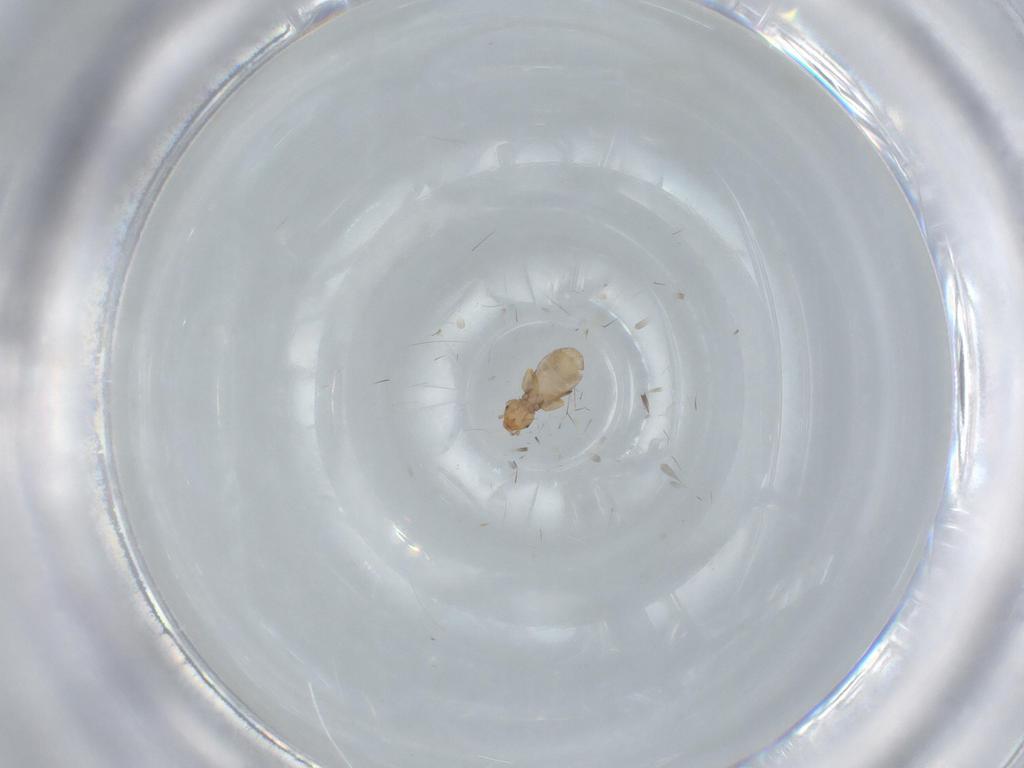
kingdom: Animalia
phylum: Arthropoda
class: Insecta
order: Psocodea
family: Liposcelididae
